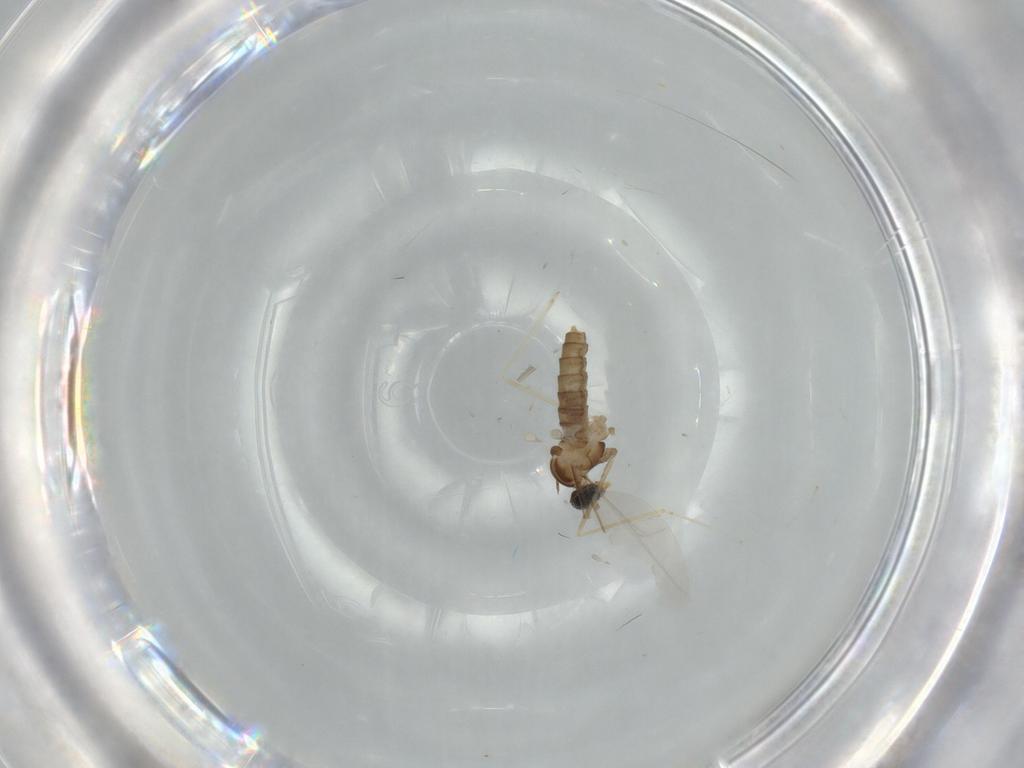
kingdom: Animalia
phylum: Arthropoda
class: Insecta
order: Diptera
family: Cecidomyiidae
